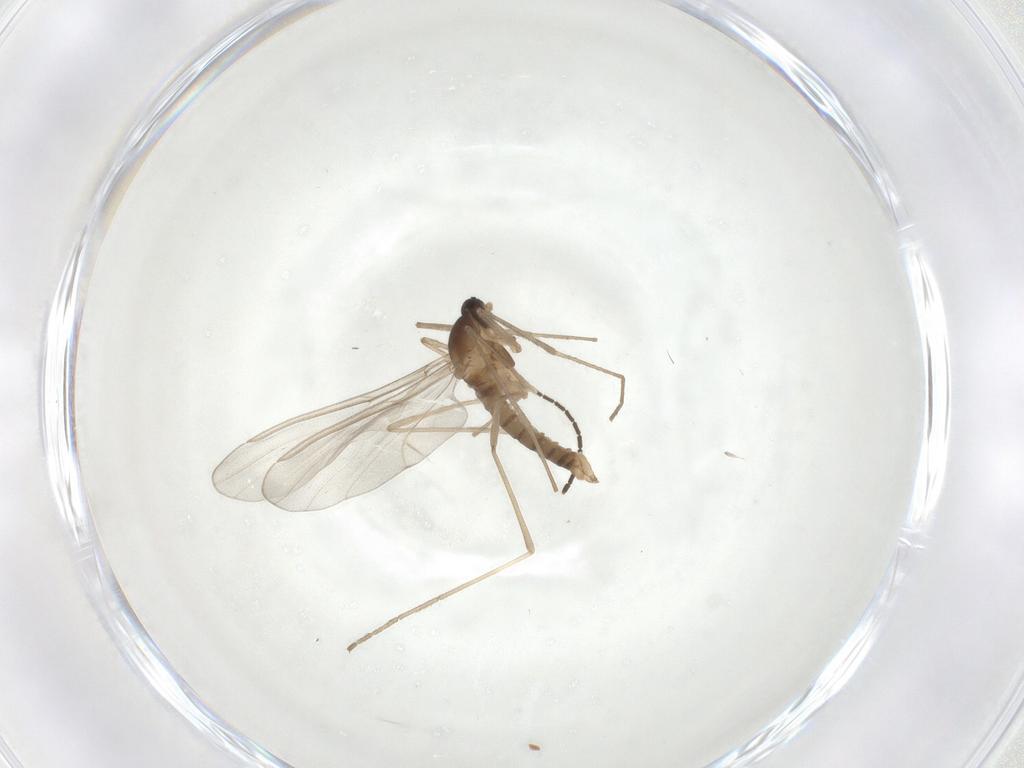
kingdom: Animalia
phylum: Arthropoda
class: Insecta
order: Diptera
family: Cecidomyiidae
